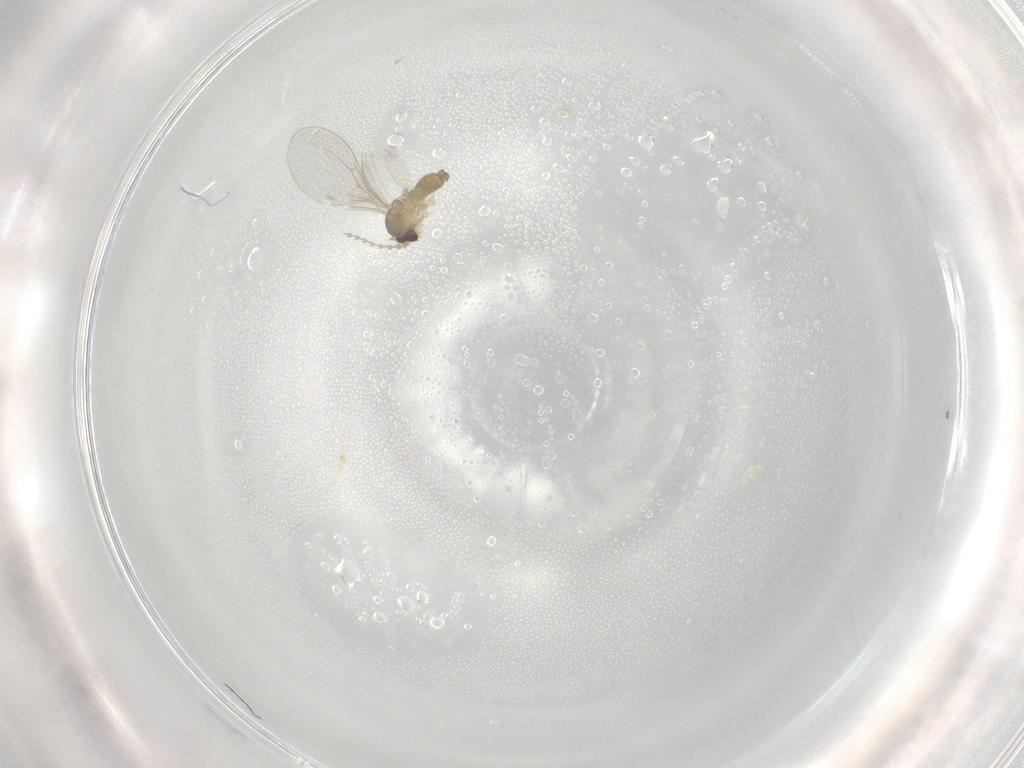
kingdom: Animalia
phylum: Arthropoda
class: Insecta
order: Diptera
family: Cecidomyiidae
